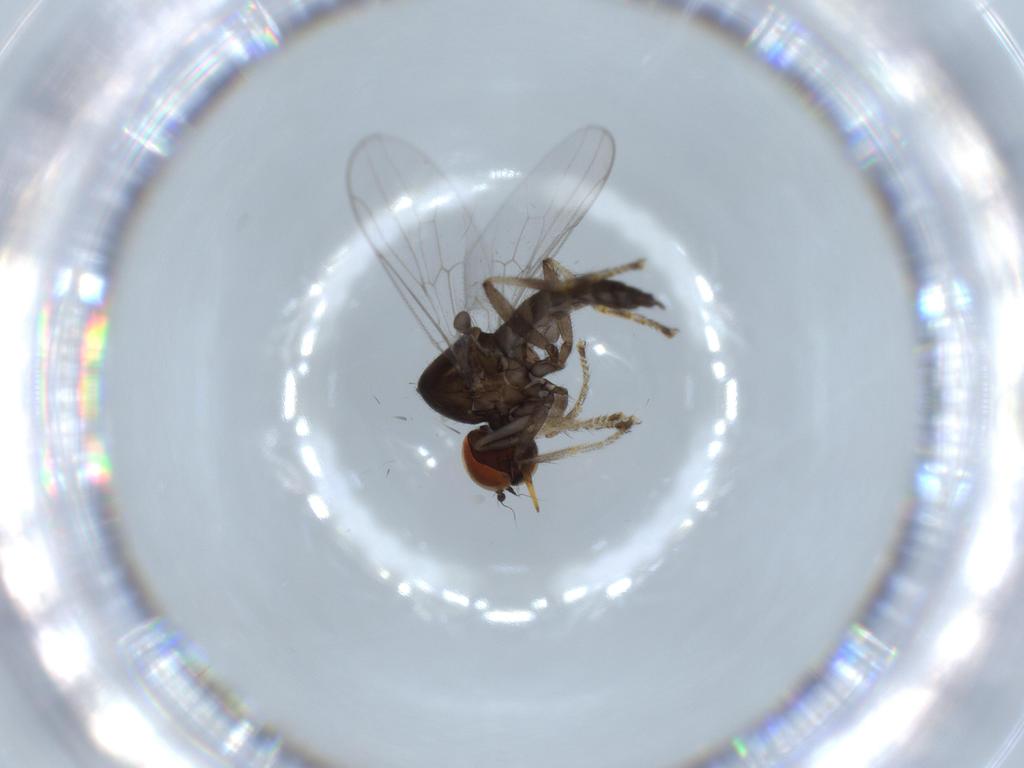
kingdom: Animalia
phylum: Arthropoda
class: Insecta
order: Diptera
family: Hybotidae
